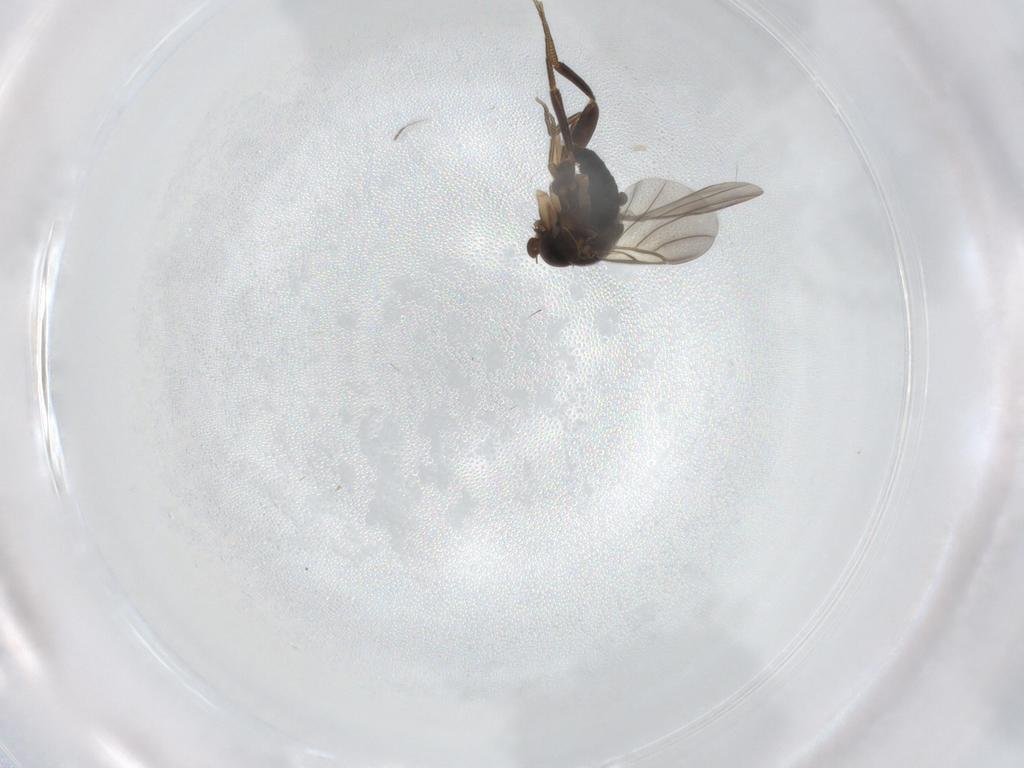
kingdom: Animalia
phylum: Arthropoda
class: Insecta
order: Diptera
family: Phoridae
